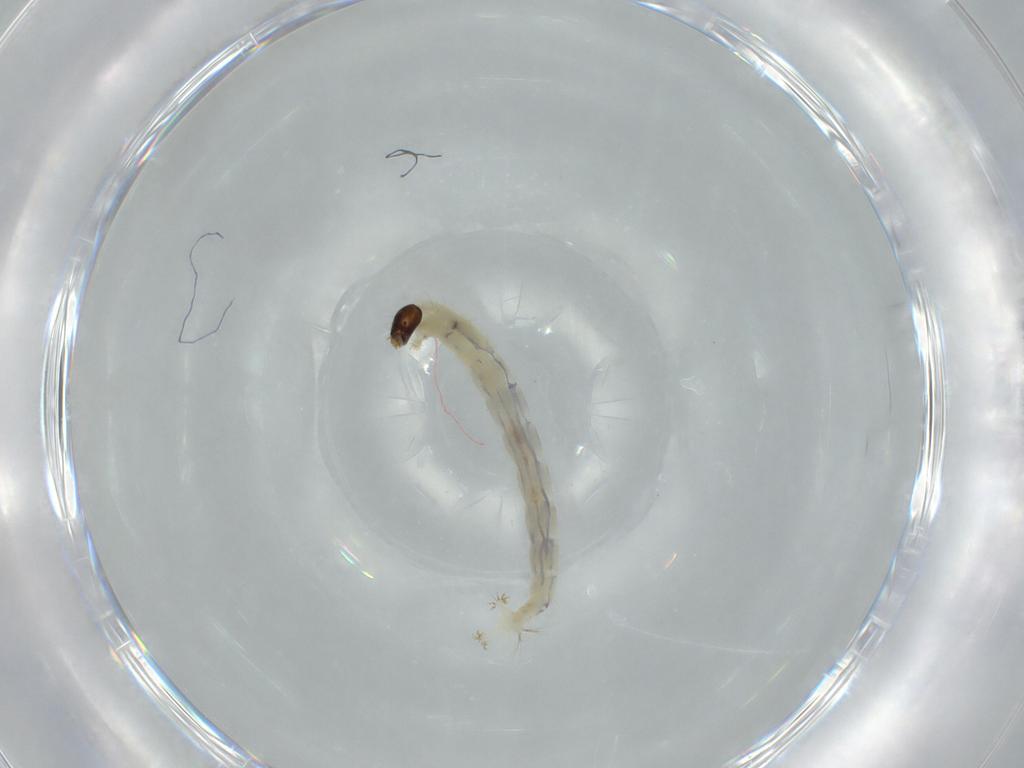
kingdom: Animalia
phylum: Arthropoda
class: Insecta
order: Diptera
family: Chironomidae
